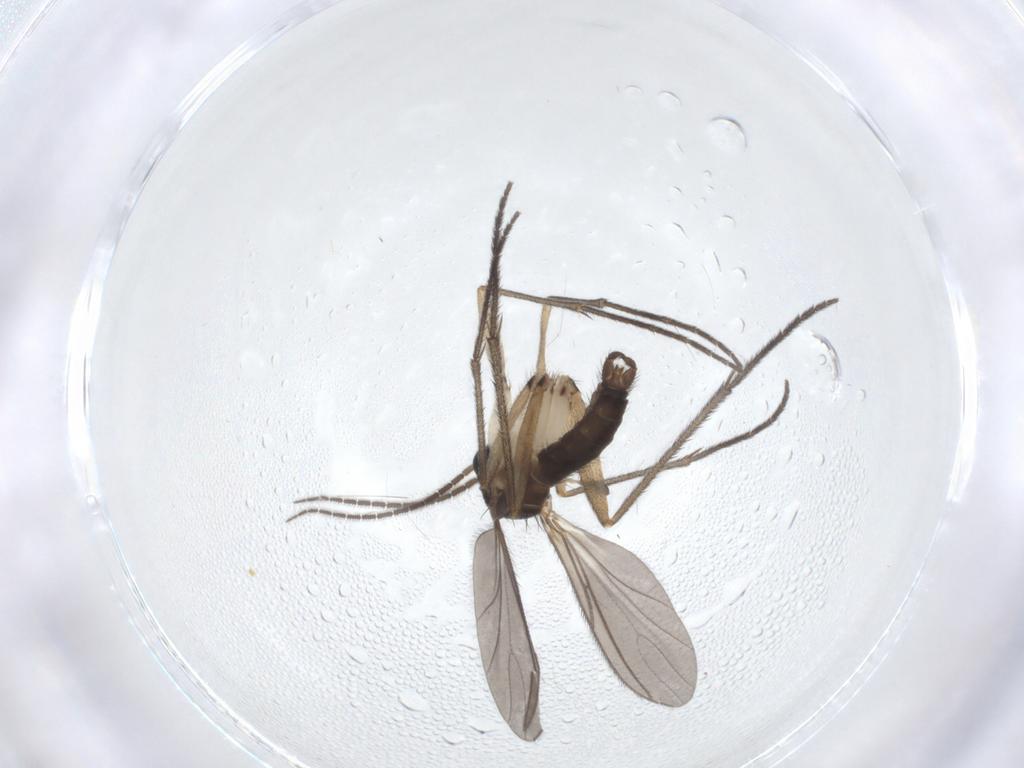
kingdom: Animalia
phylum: Arthropoda
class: Insecta
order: Diptera
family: Sciaridae
